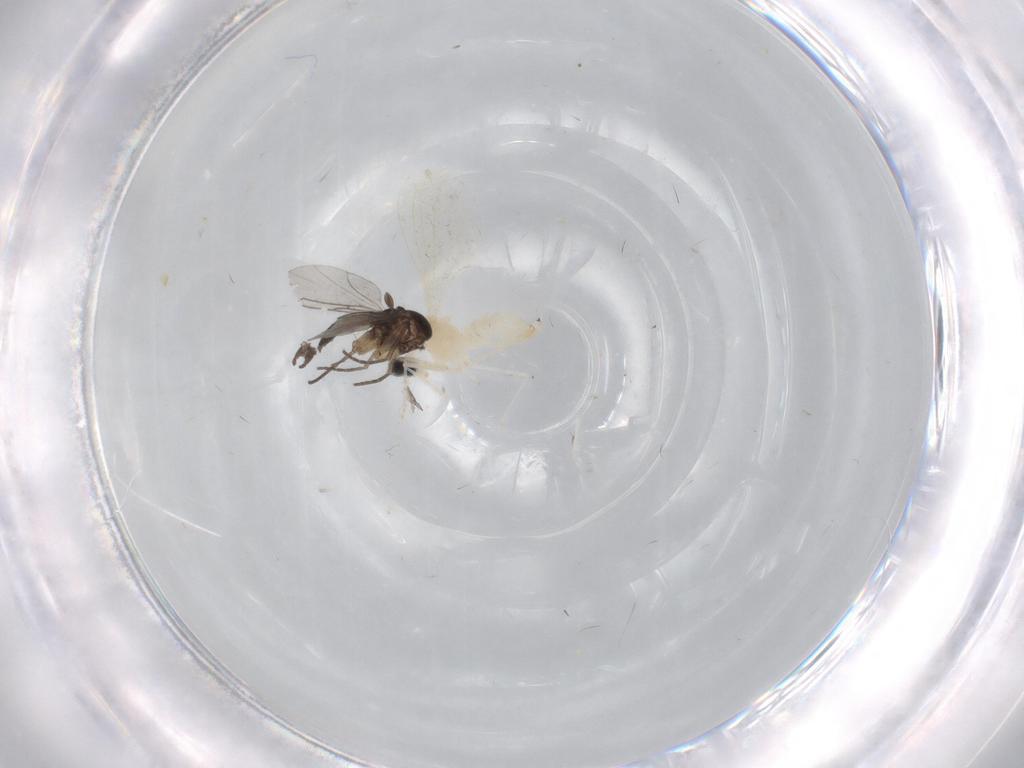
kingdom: Animalia
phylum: Arthropoda
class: Insecta
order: Diptera
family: Cecidomyiidae
